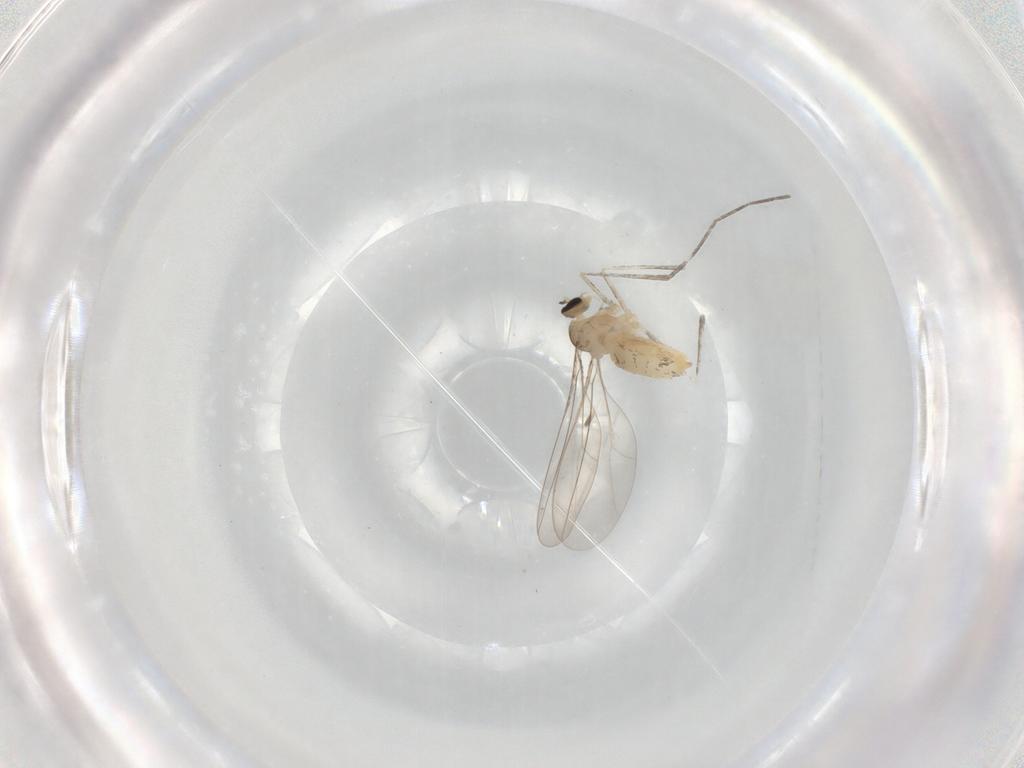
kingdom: Animalia
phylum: Arthropoda
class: Insecta
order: Diptera
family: Cecidomyiidae
